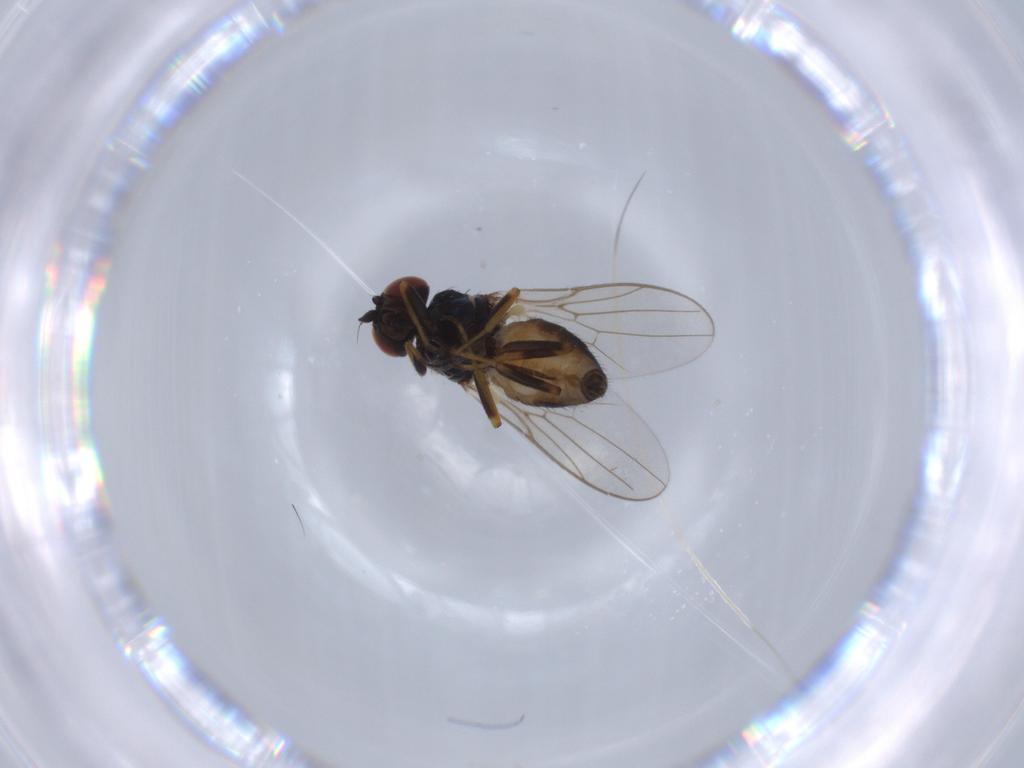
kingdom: Animalia
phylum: Arthropoda
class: Insecta
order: Diptera
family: Chloropidae
